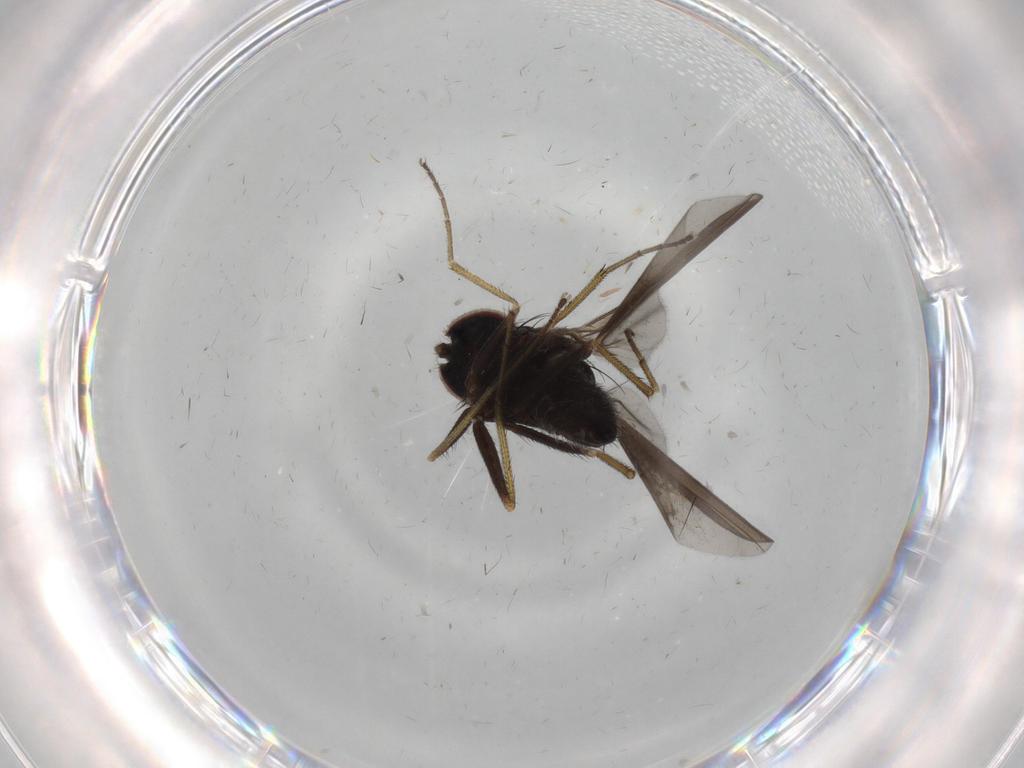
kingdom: Animalia
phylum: Arthropoda
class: Insecta
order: Diptera
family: Dolichopodidae
